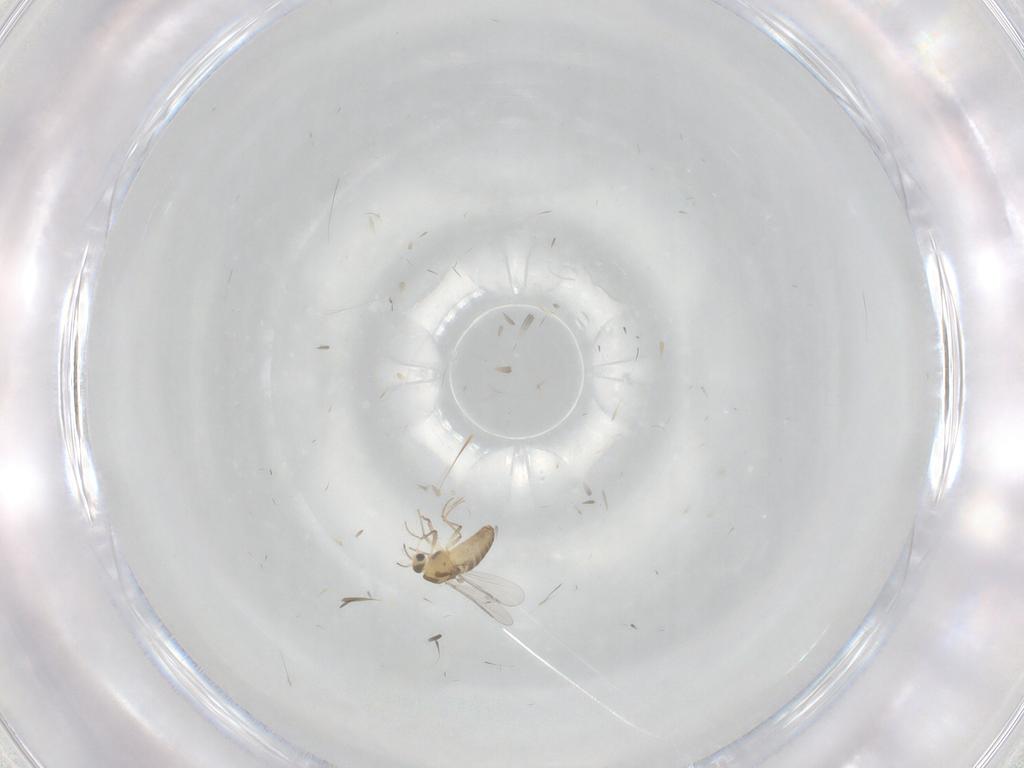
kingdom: Animalia
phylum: Arthropoda
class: Insecta
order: Diptera
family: Chironomidae
